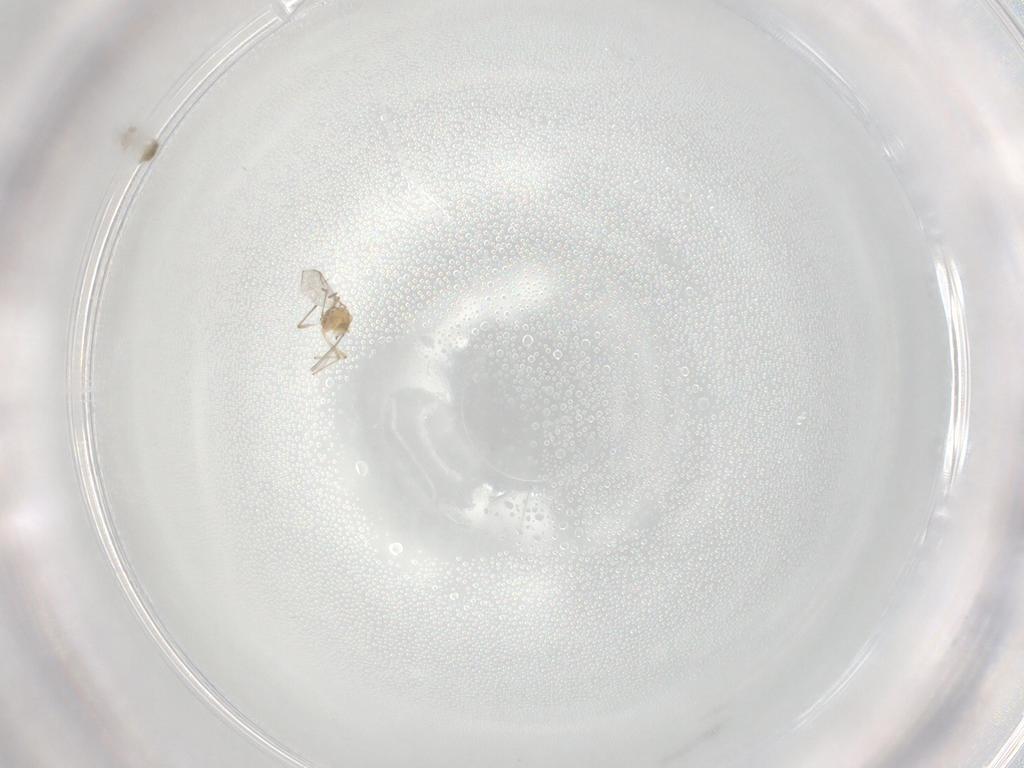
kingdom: Animalia
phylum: Arthropoda
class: Insecta
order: Diptera
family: Chironomidae
